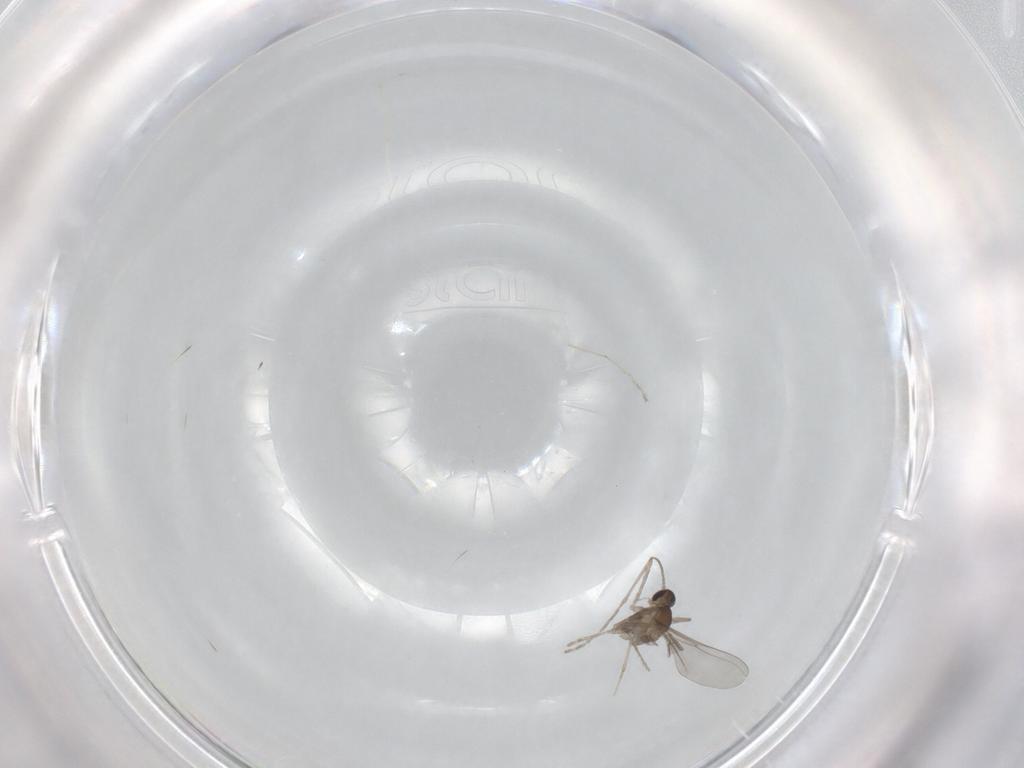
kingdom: Animalia
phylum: Arthropoda
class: Insecta
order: Diptera
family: Cecidomyiidae
